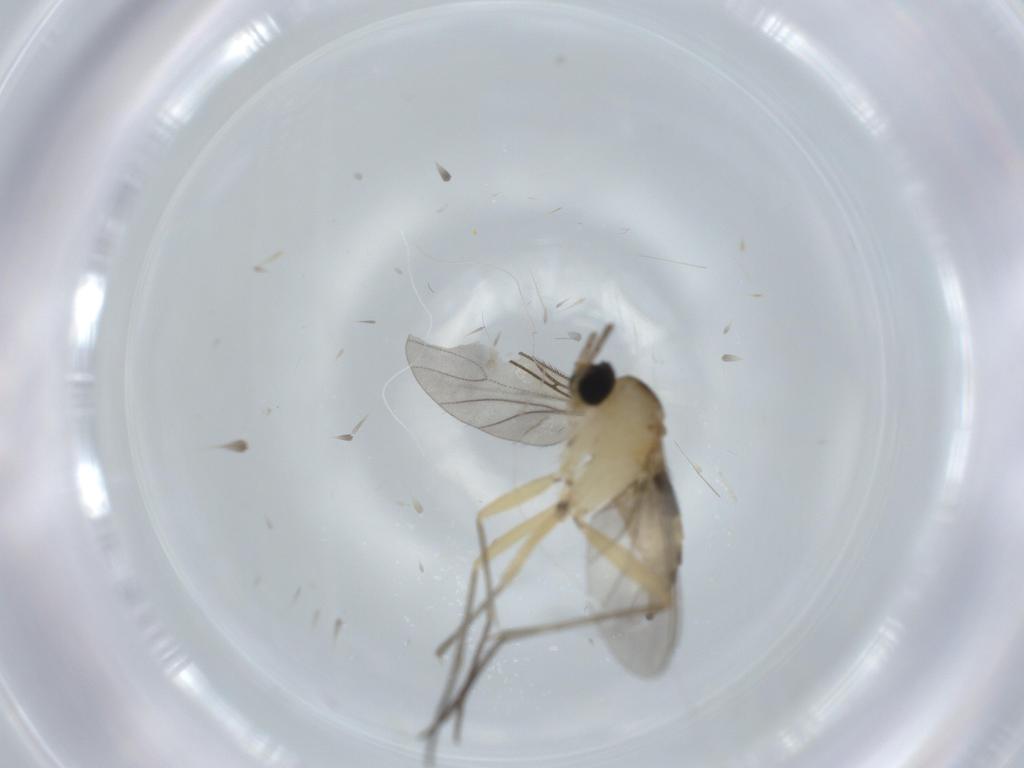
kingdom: Animalia
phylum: Arthropoda
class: Insecta
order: Diptera
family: Sciaridae
